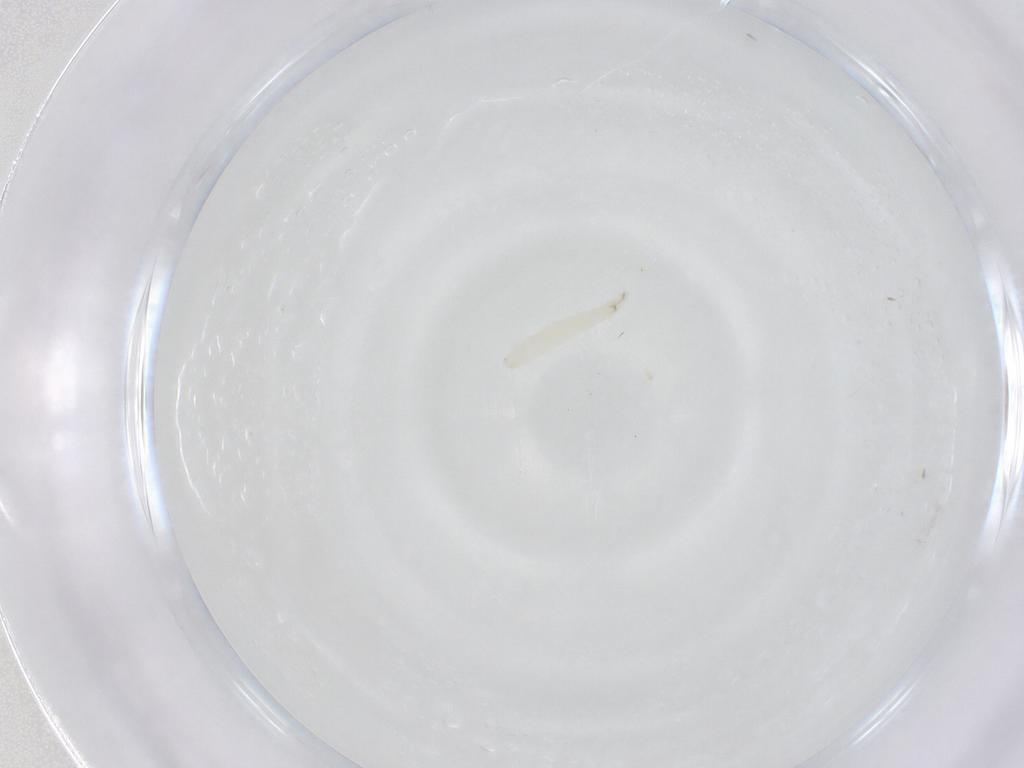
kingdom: Animalia
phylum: Arthropoda
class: Insecta
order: Diptera
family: Sarcophagidae
